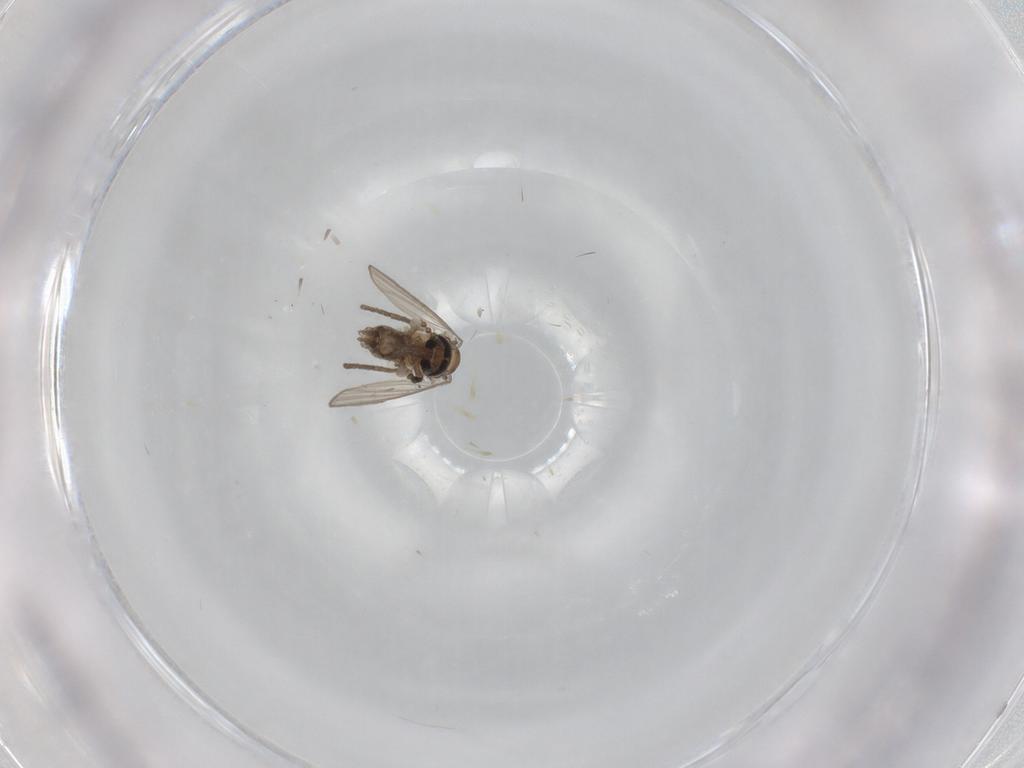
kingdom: Animalia
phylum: Arthropoda
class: Insecta
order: Diptera
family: Psychodidae
